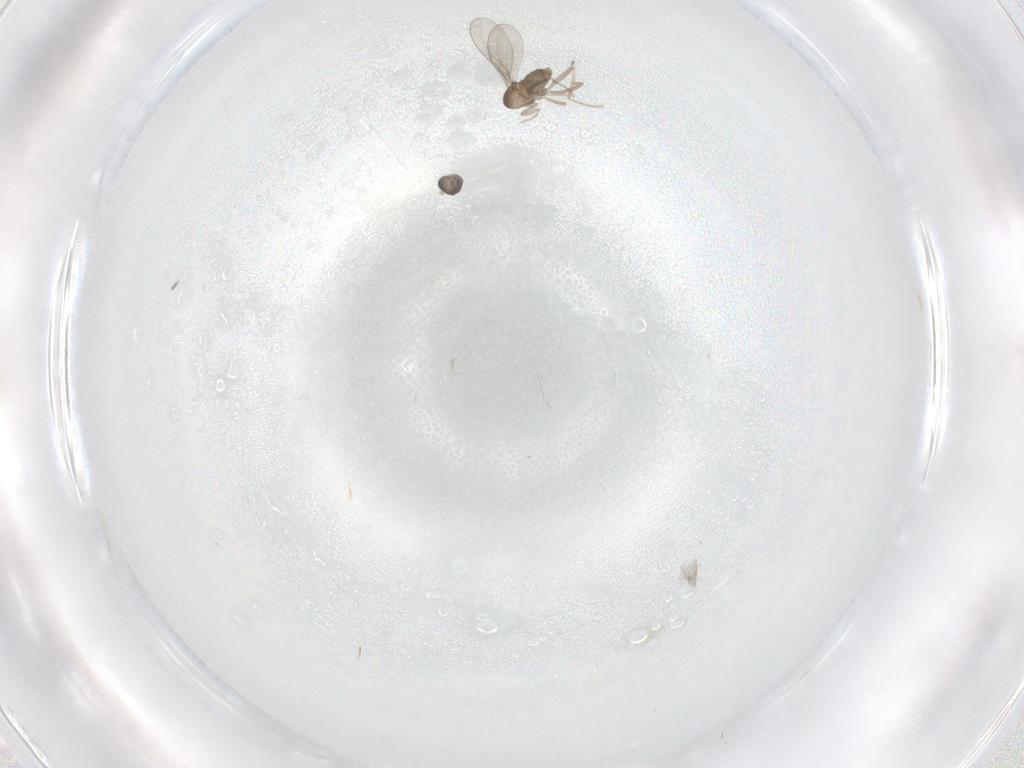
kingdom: Animalia
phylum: Arthropoda
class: Insecta
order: Diptera
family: Cecidomyiidae
